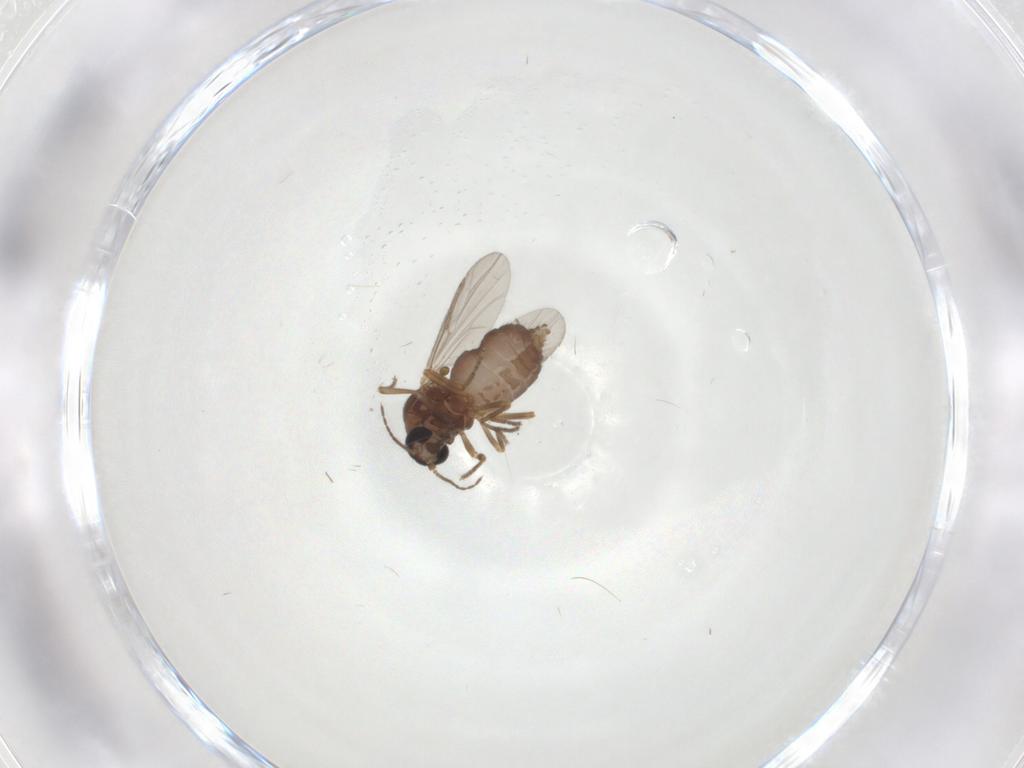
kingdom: Animalia
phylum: Arthropoda
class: Insecta
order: Diptera
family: Ceratopogonidae
